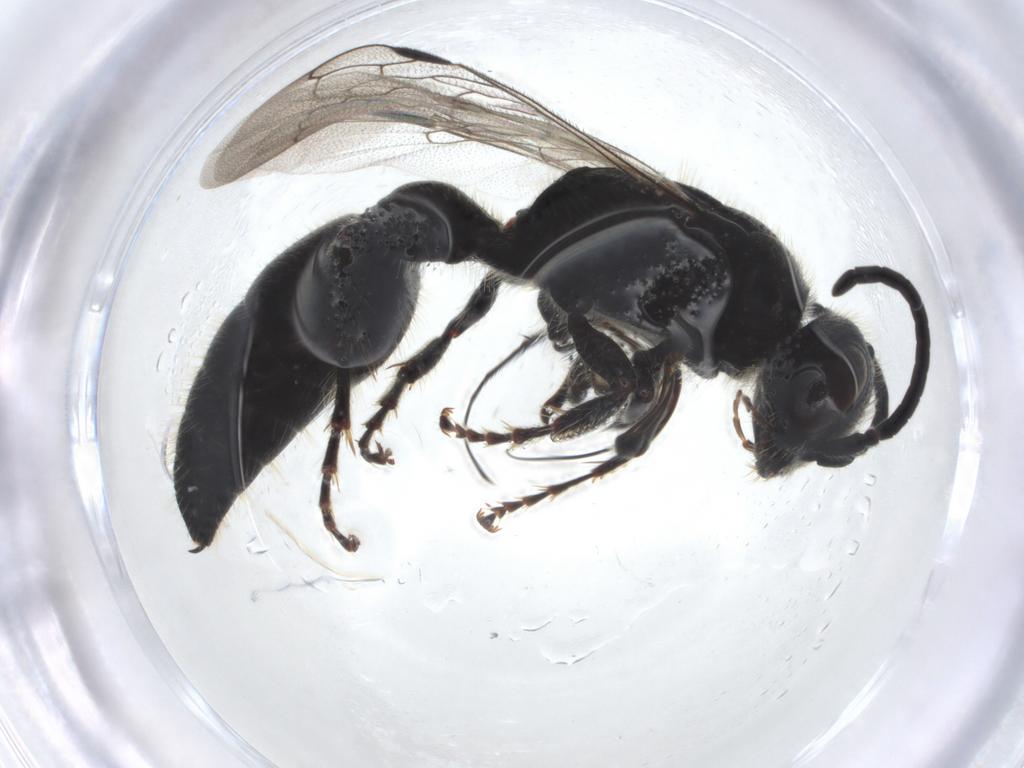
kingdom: Animalia
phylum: Arthropoda
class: Insecta
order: Hymenoptera
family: Tiphiidae
